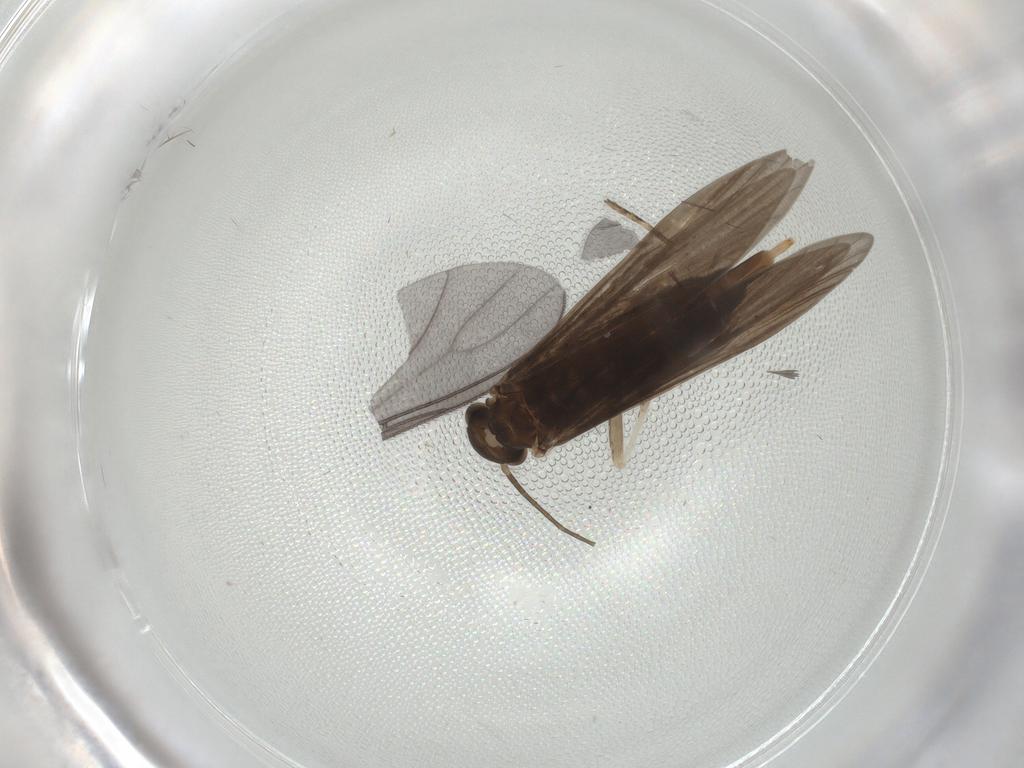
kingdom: Animalia
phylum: Arthropoda
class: Insecta
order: Trichoptera
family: Xiphocentronidae
